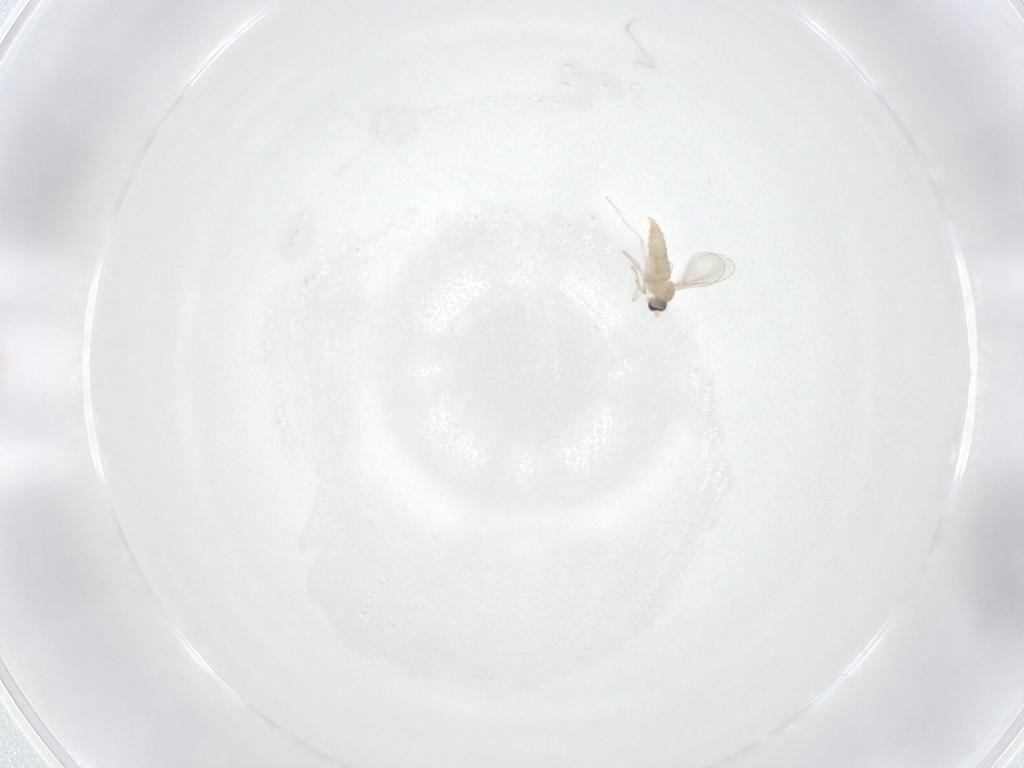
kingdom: Animalia
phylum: Arthropoda
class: Insecta
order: Diptera
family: Cecidomyiidae
